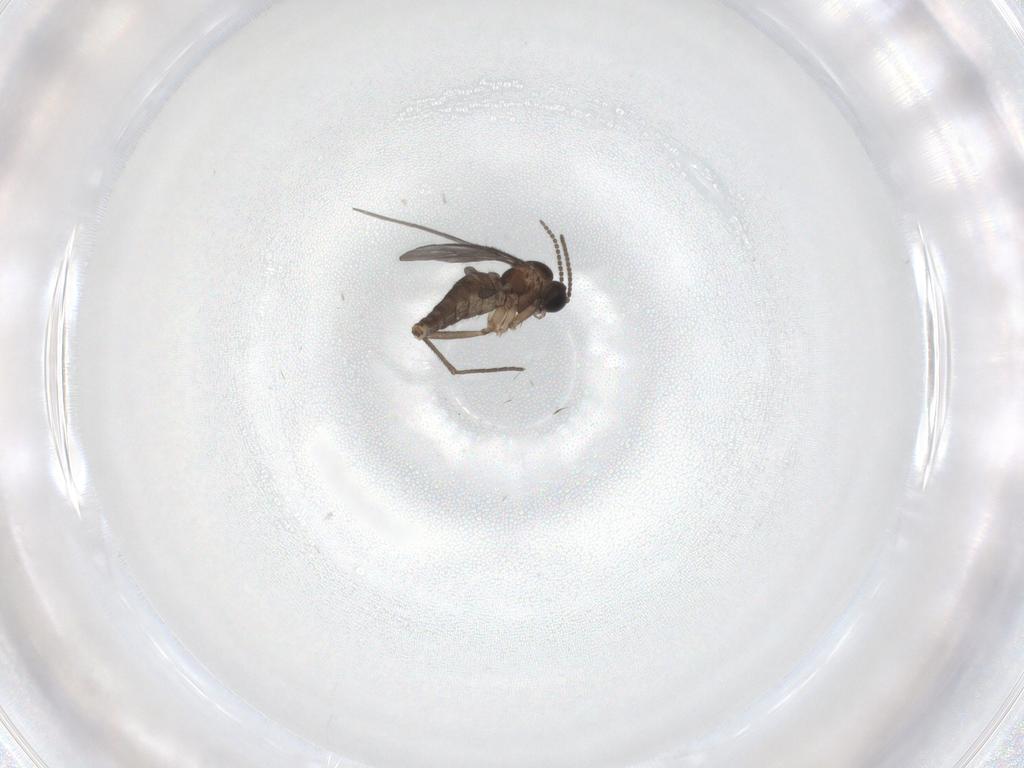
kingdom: Animalia
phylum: Arthropoda
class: Insecta
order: Diptera
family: Sciaridae
